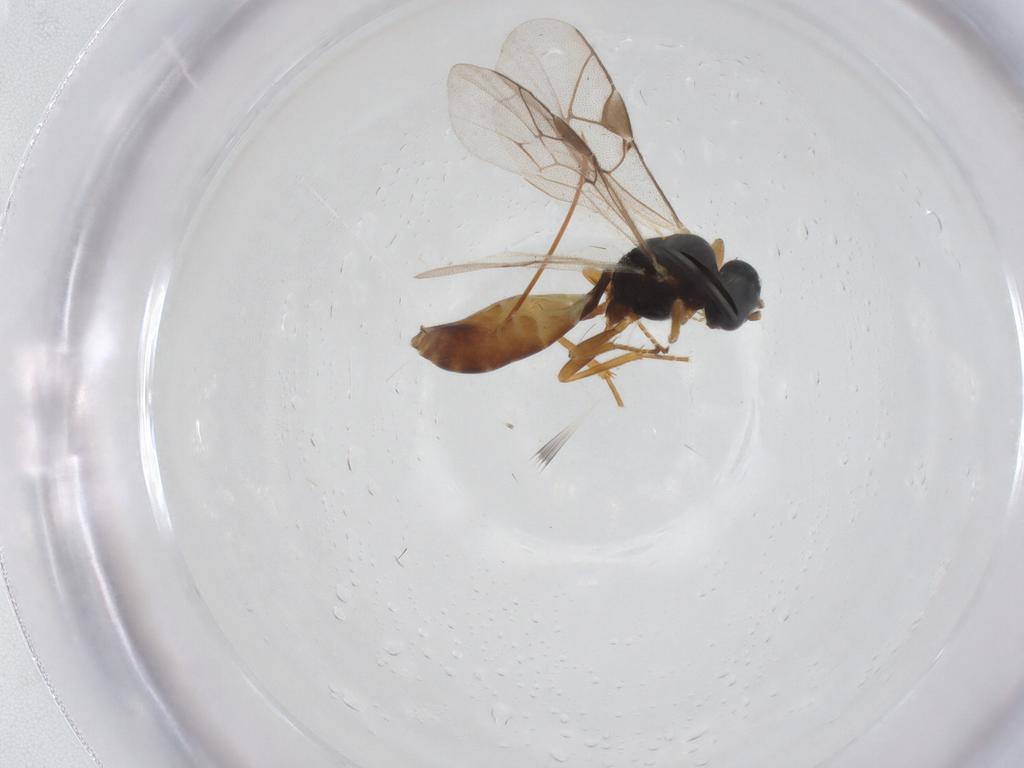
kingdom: Animalia
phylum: Arthropoda
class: Insecta
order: Hymenoptera
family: Ichneumonidae
